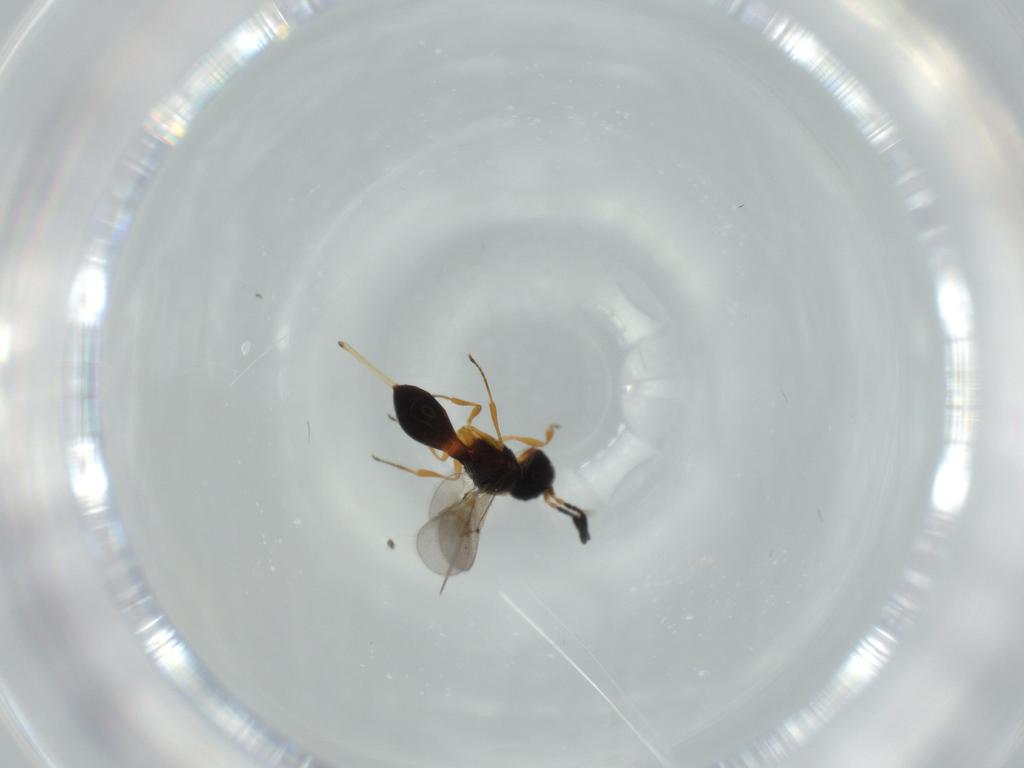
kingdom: Animalia
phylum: Arthropoda
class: Insecta
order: Hymenoptera
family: Scelionidae
